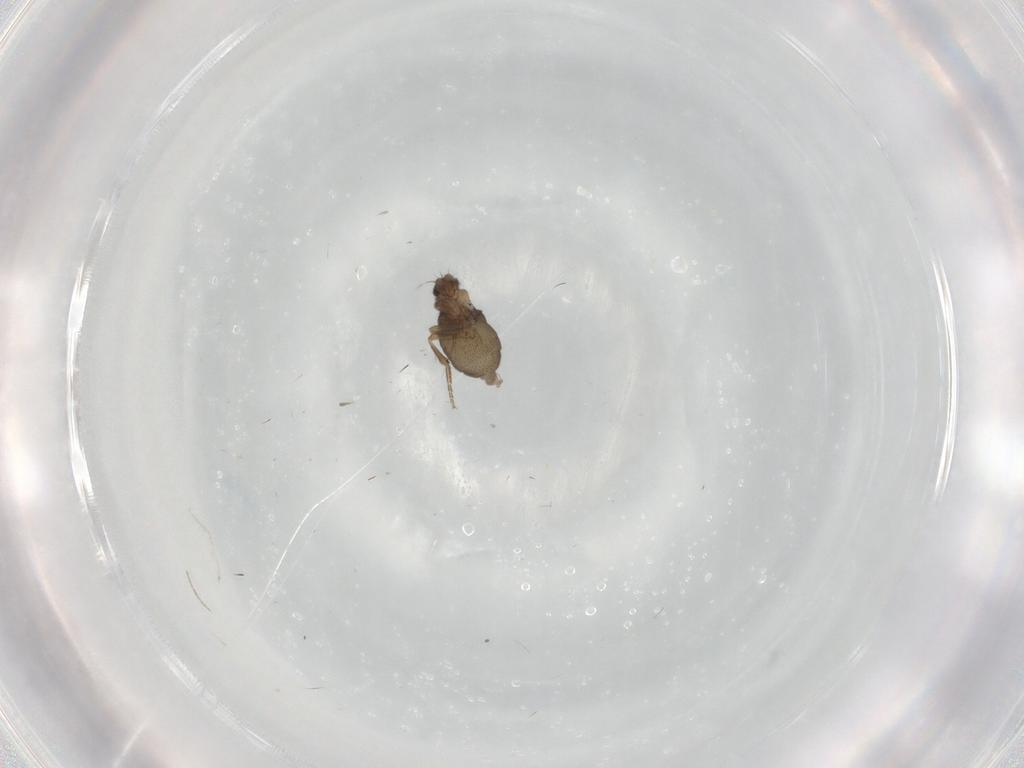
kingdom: Animalia
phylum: Arthropoda
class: Insecta
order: Diptera
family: Cecidomyiidae
